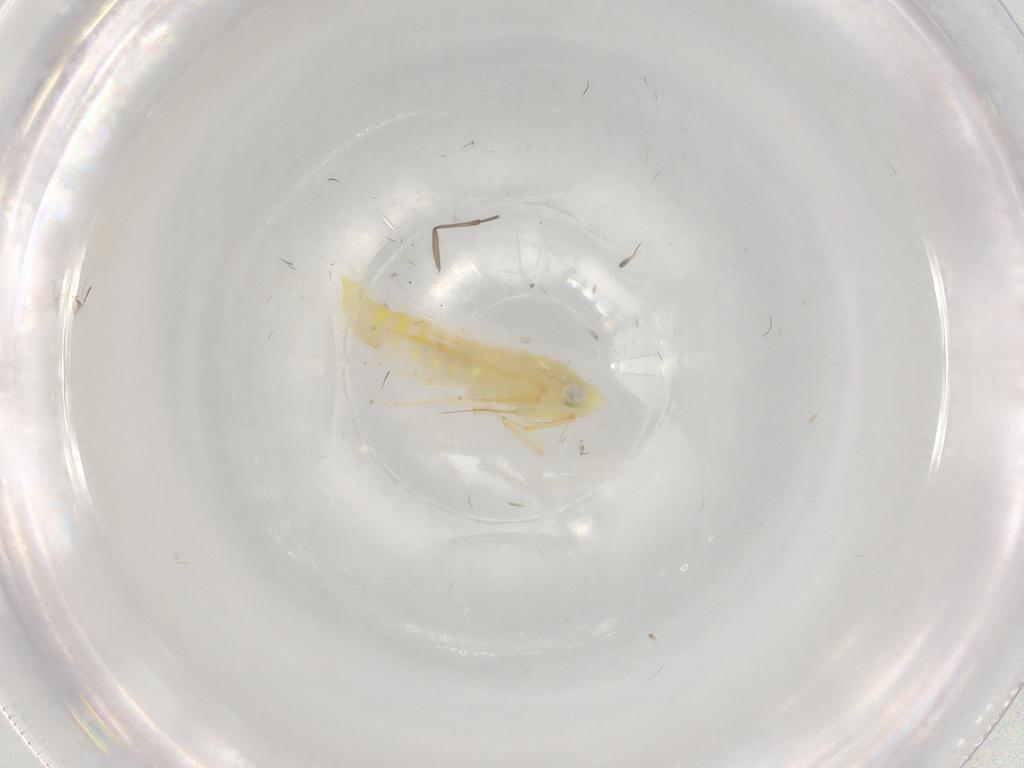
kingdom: Animalia
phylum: Arthropoda
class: Insecta
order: Hemiptera
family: Cicadellidae
